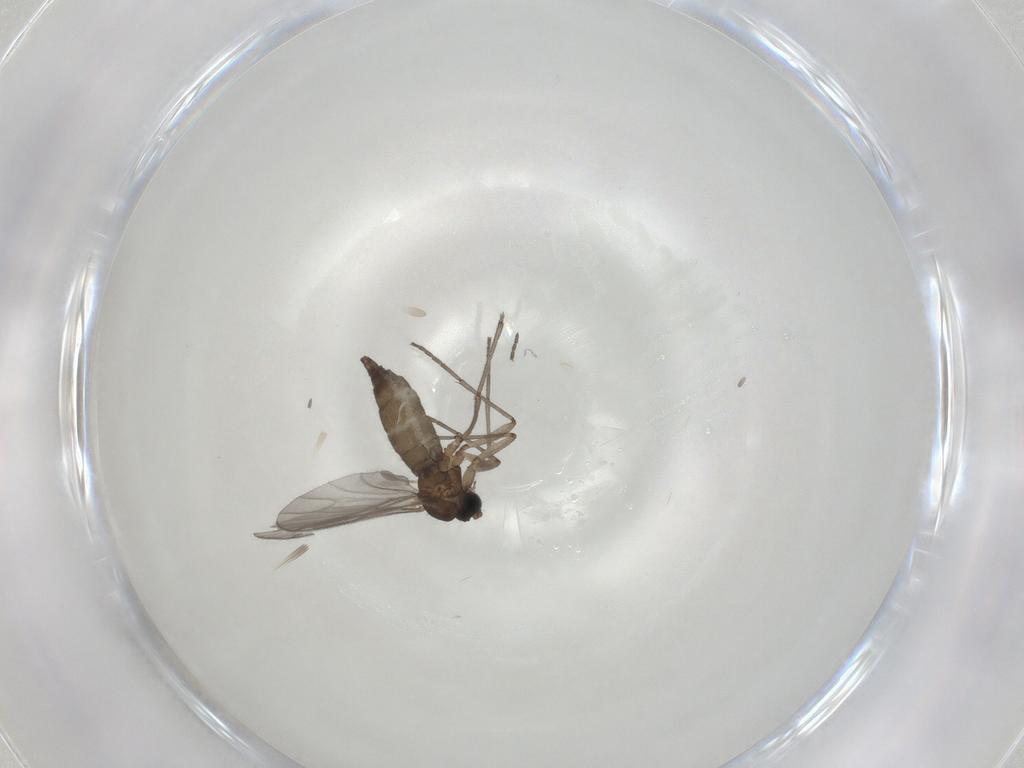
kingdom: Animalia
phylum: Arthropoda
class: Insecta
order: Diptera
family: Sciaridae
